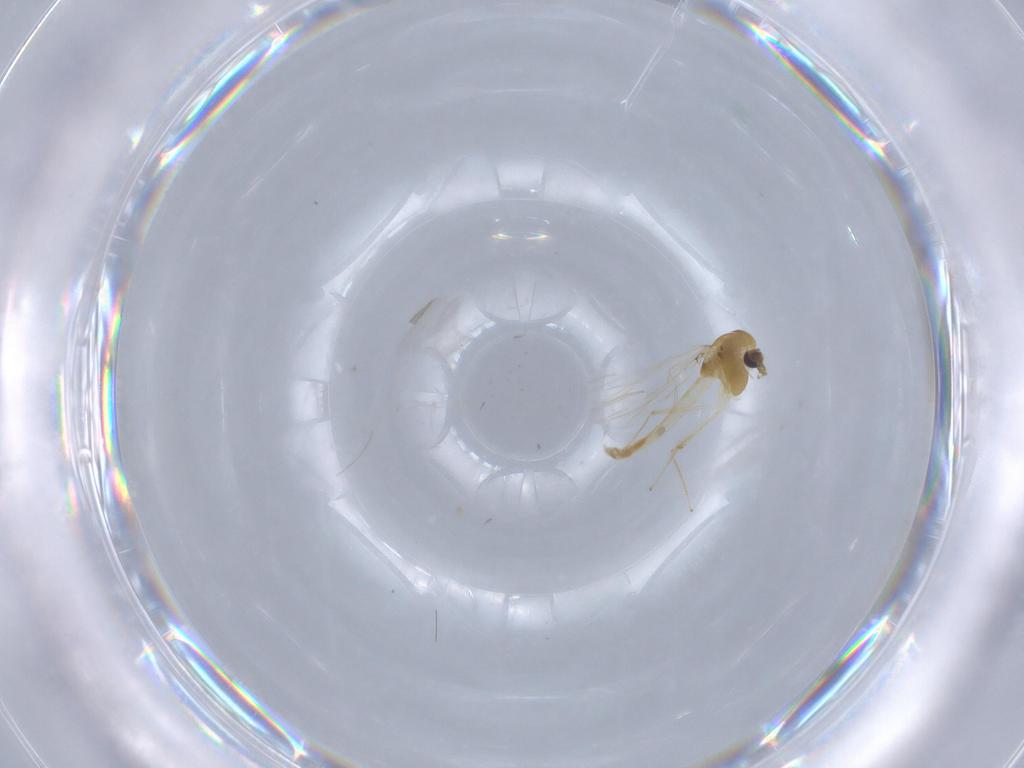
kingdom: Animalia
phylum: Arthropoda
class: Insecta
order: Diptera
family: Chironomidae
